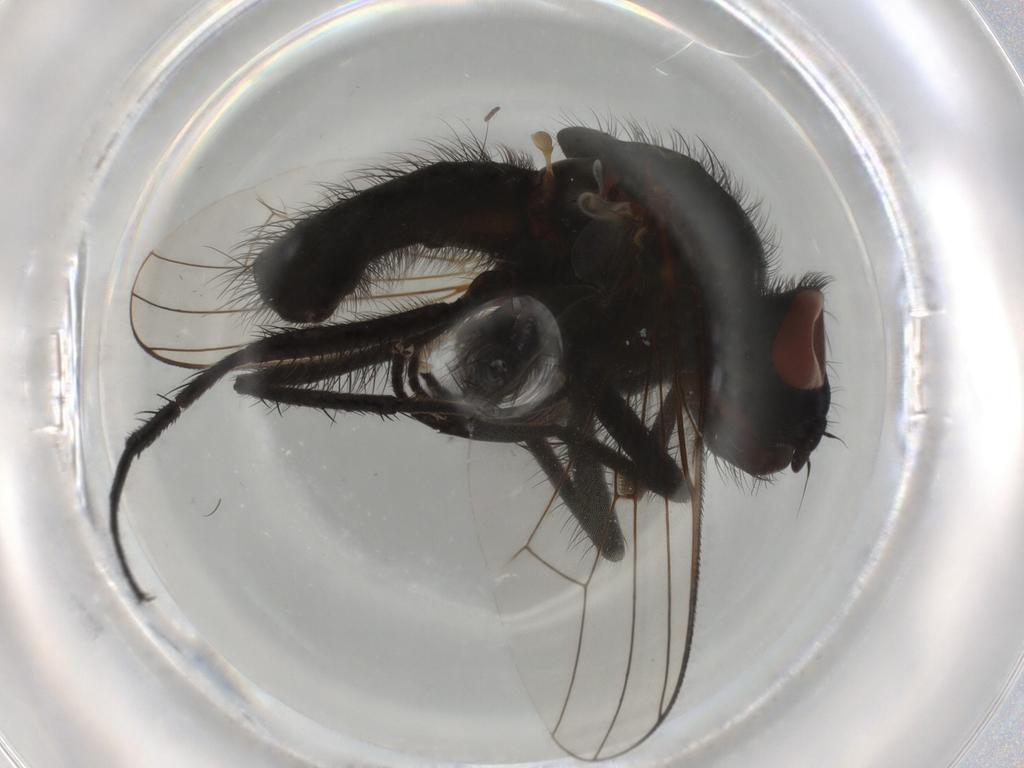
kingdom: Animalia
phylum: Arthropoda
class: Insecta
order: Diptera
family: Anthomyiidae
